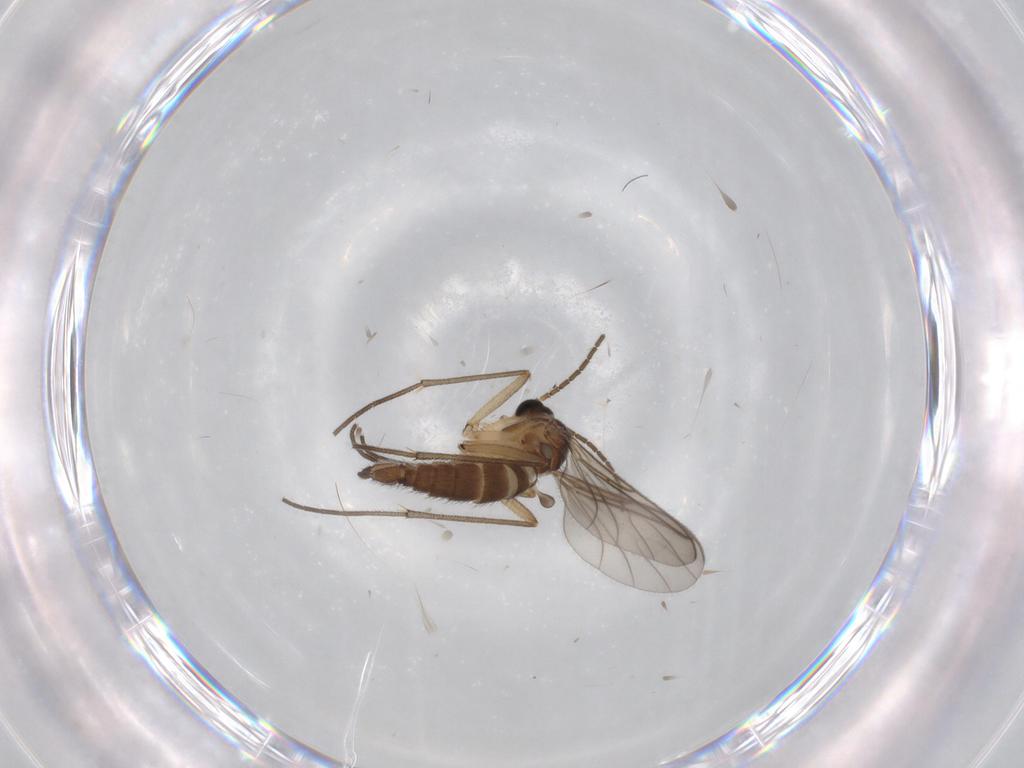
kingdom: Animalia
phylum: Arthropoda
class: Insecta
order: Diptera
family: Sciaridae
